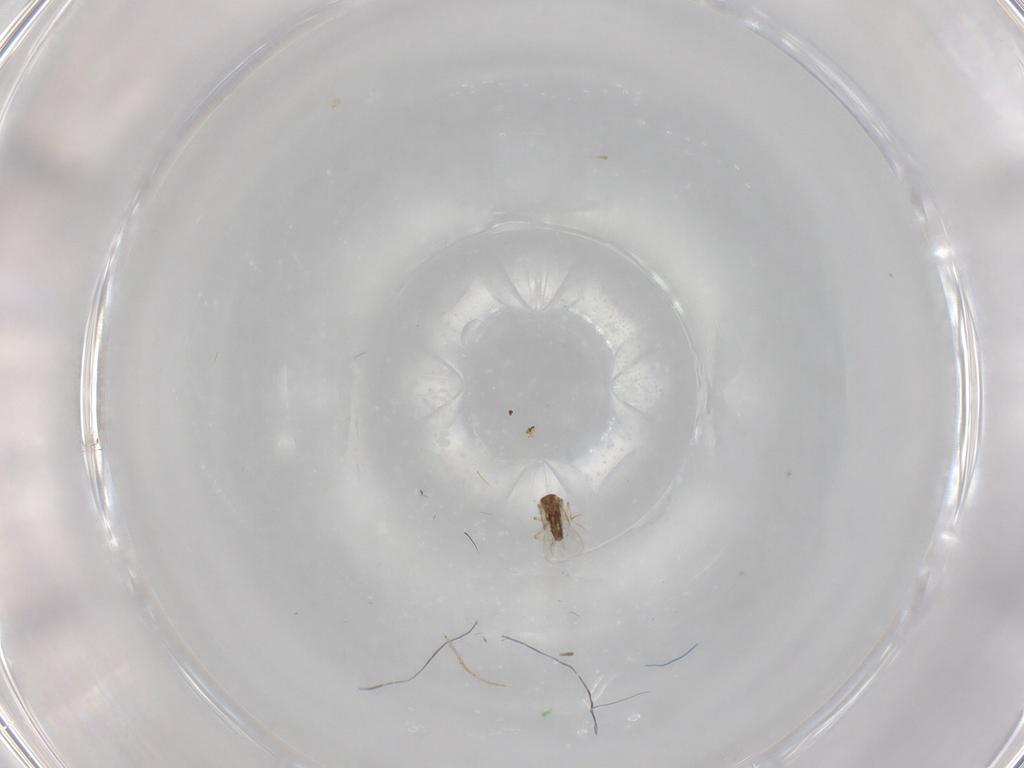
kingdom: Animalia
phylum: Arthropoda
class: Insecta
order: Diptera
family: Ceratopogonidae
